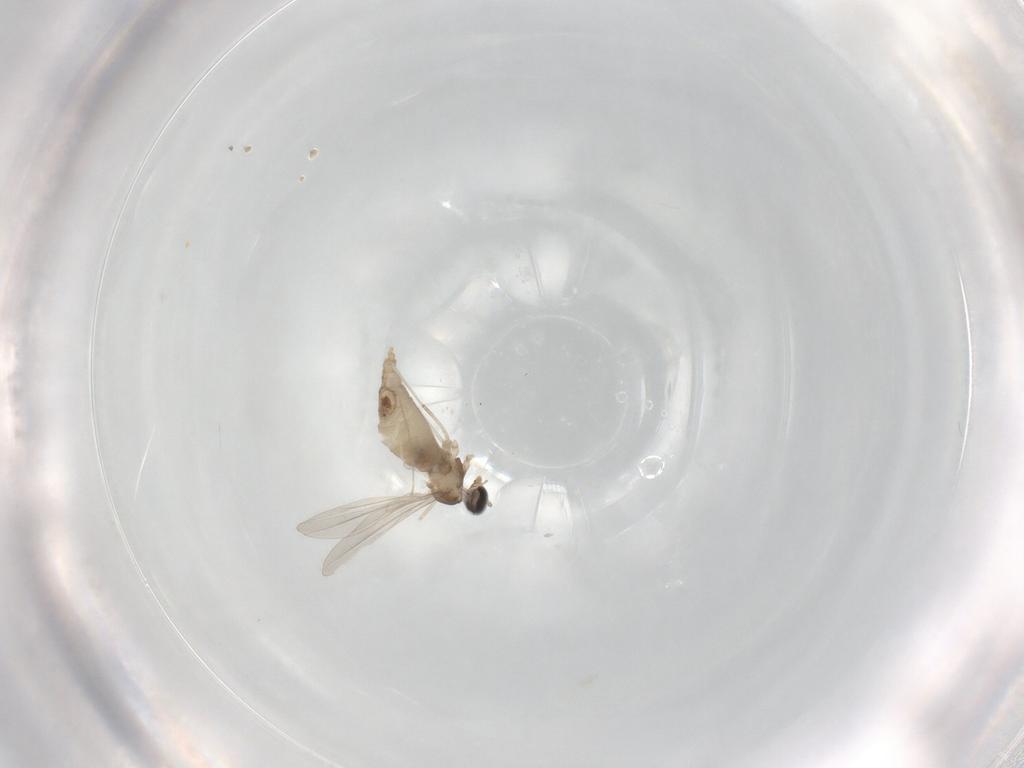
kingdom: Animalia
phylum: Arthropoda
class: Insecta
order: Diptera
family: Cecidomyiidae
